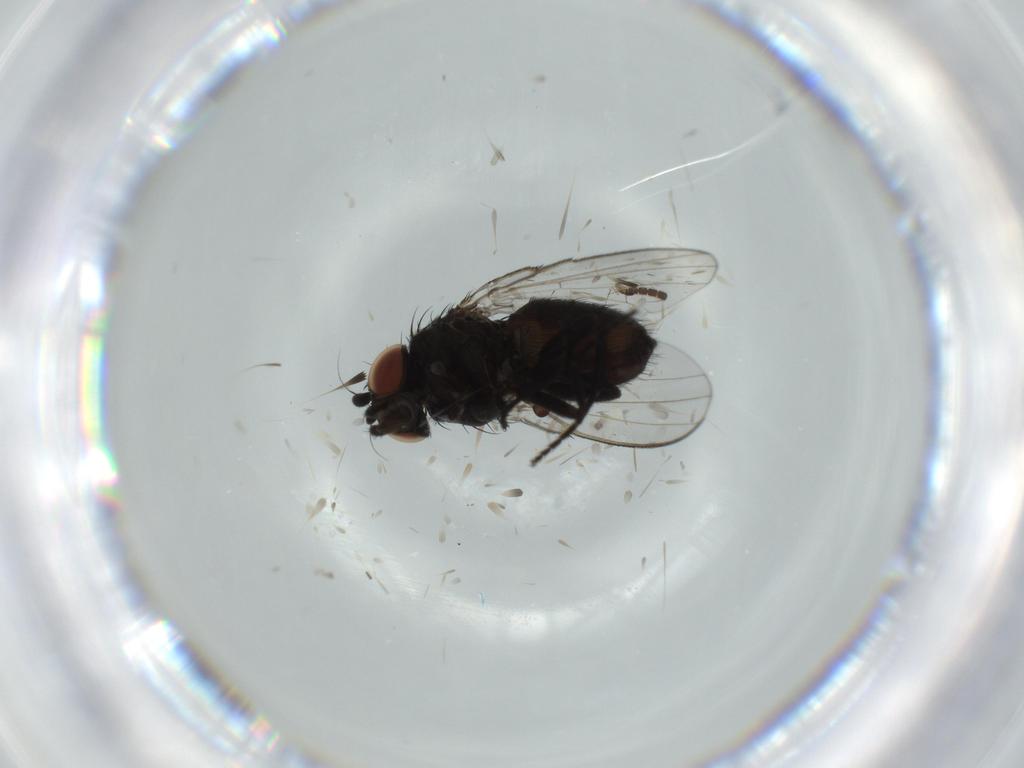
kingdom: Animalia
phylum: Arthropoda
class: Insecta
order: Diptera
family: Milichiidae
